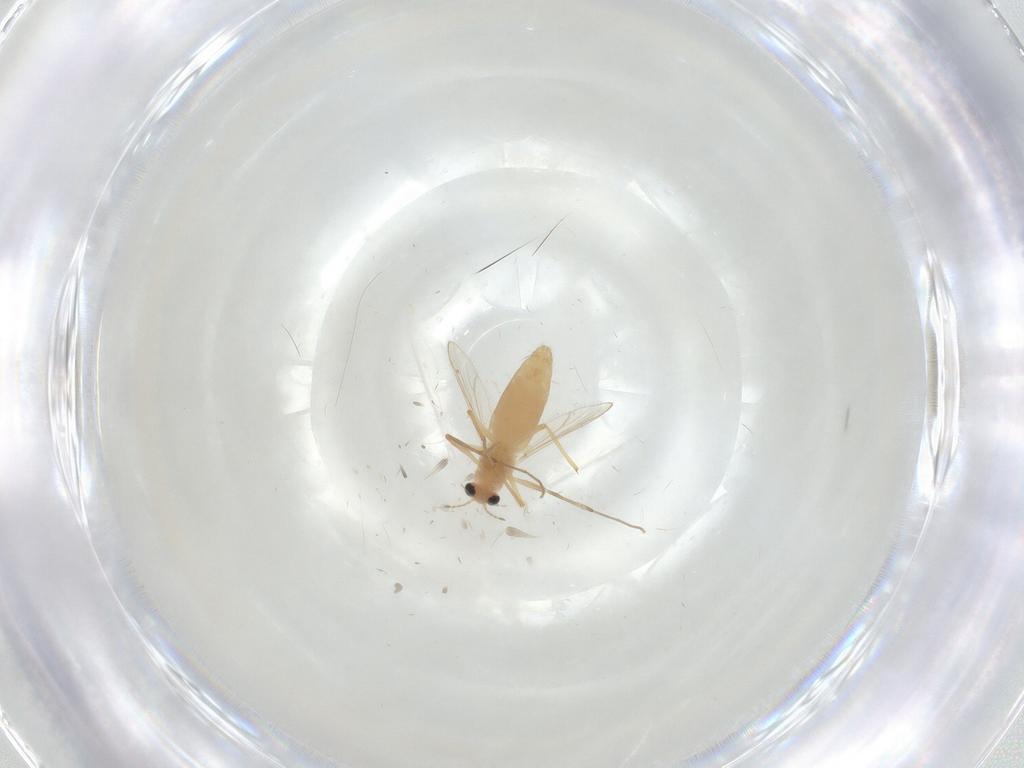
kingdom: Animalia
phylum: Arthropoda
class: Insecta
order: Diptera
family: Chironomidae
